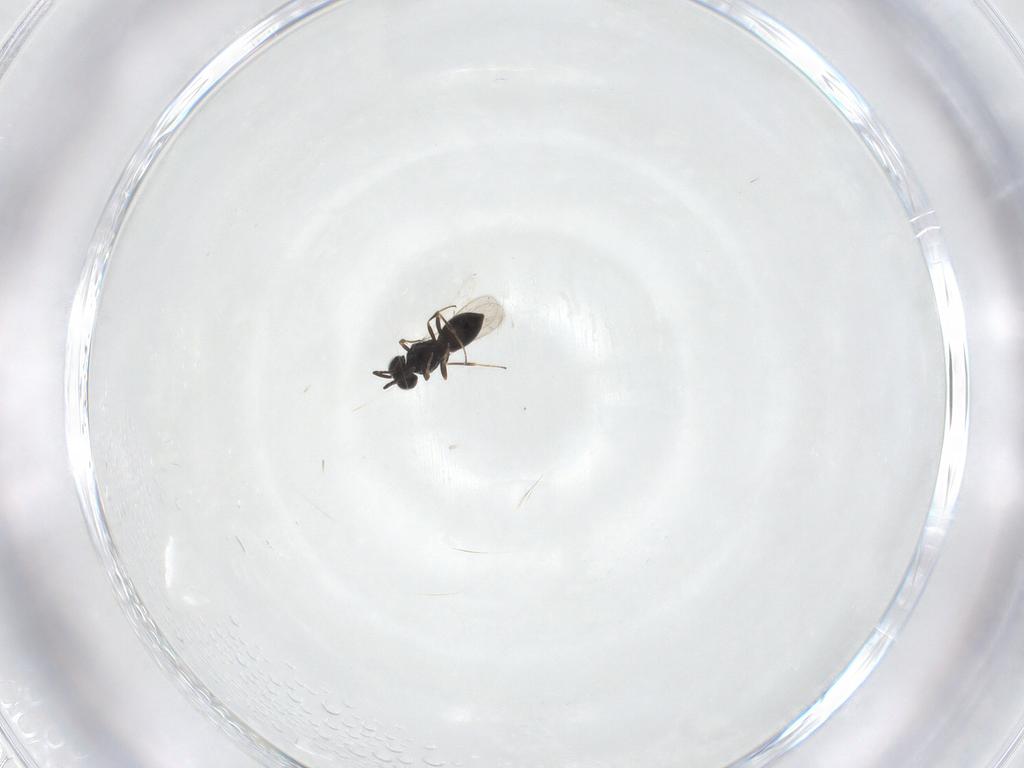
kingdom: Animalia
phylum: Arthropoda
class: Insecta
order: Hymenoptera
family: Scelionidae
